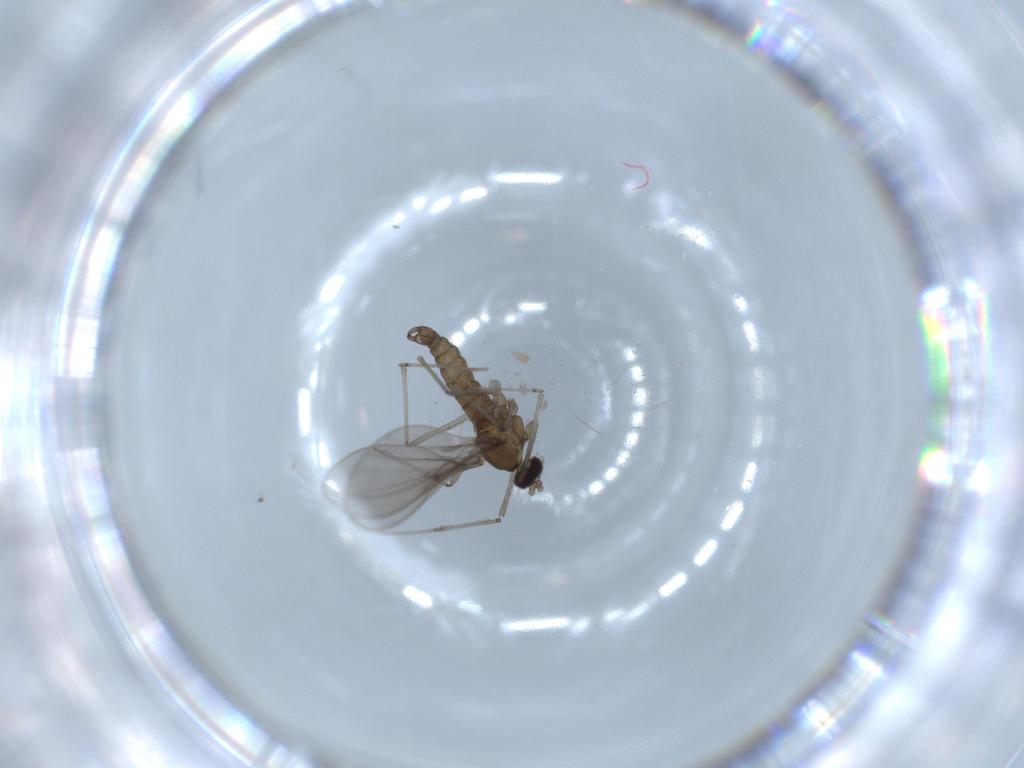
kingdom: Animalia
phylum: Arthropoda
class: Insecta
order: Diptera
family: Cecidomyiidae
